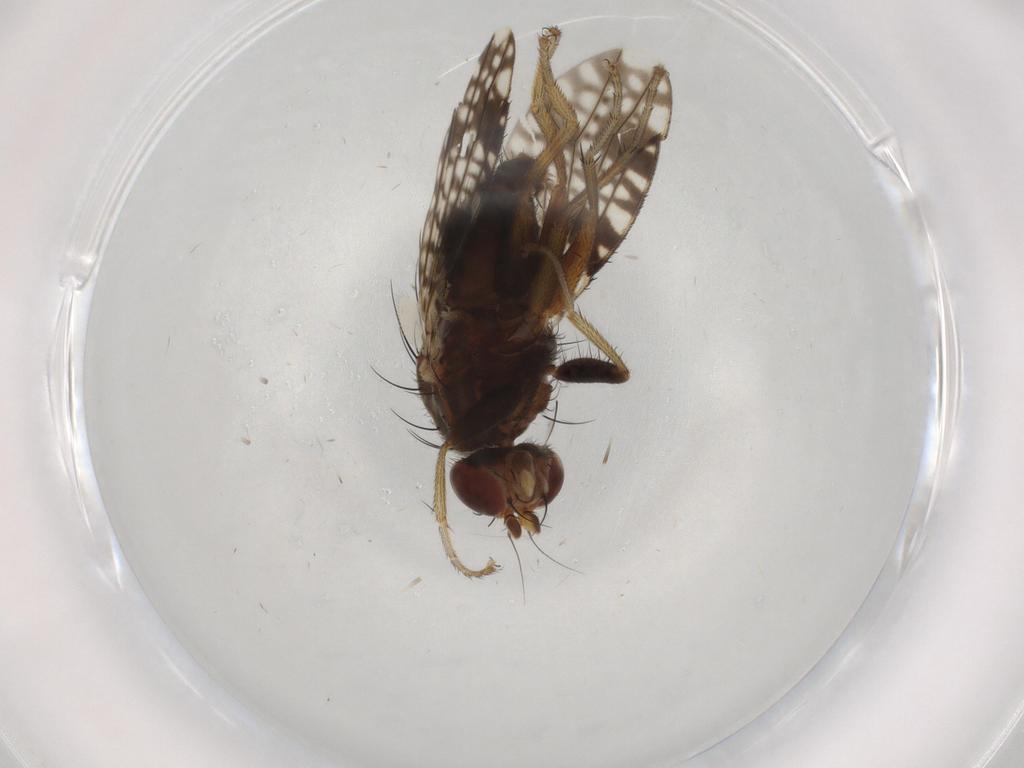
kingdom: Animalia
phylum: Arthropoda
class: Insecta
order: Diptera
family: Tephritidae
